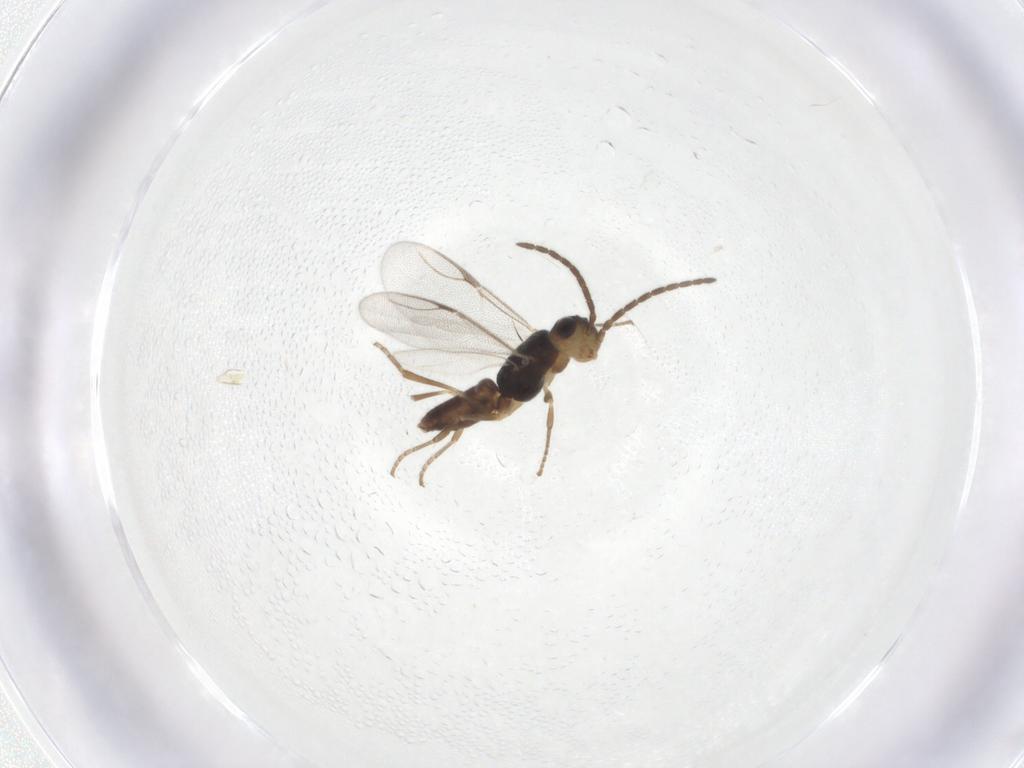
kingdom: Animalia
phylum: Arthropoda
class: Insecta
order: Hymenoptera
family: Dryinidae
